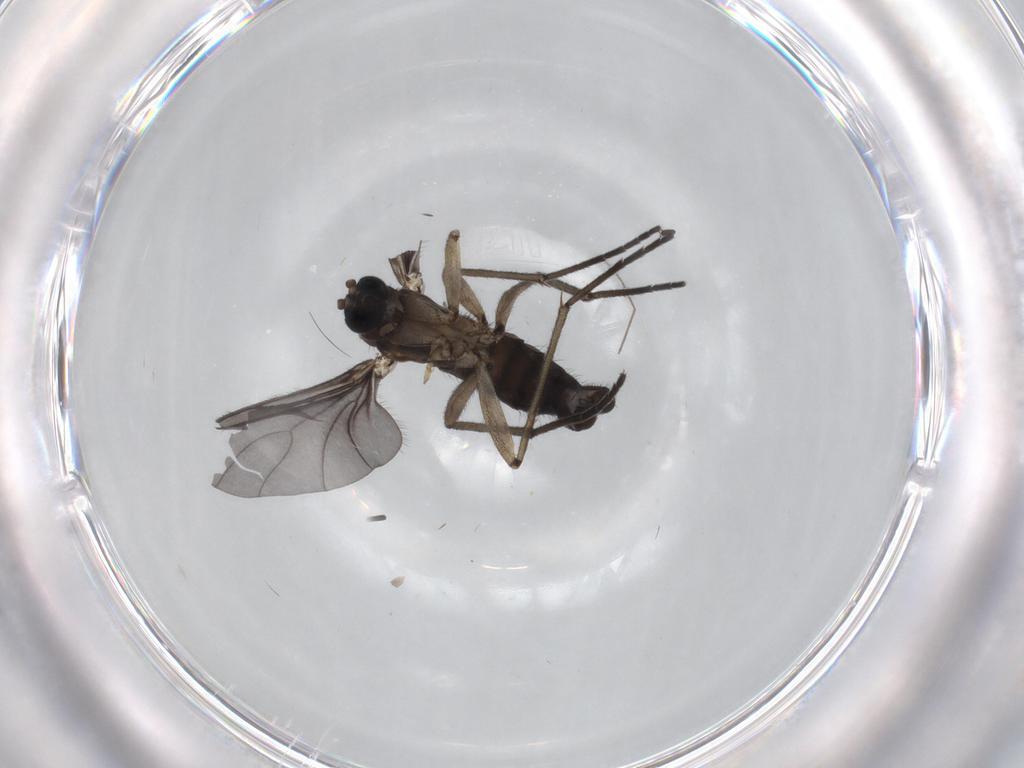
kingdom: Animalia
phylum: Arthropoda
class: Insecta
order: Diptera
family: Sciaridae
